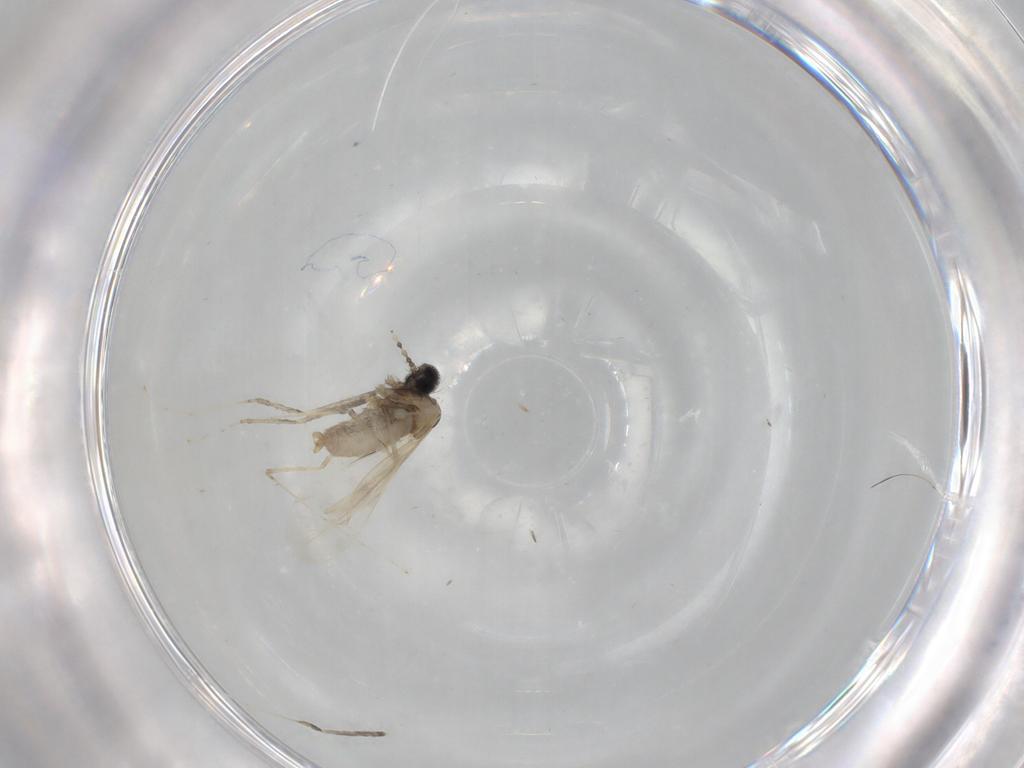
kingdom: Animalia
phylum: Arthropoda
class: Insecta
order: Diptera
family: Cecidomyiidae
